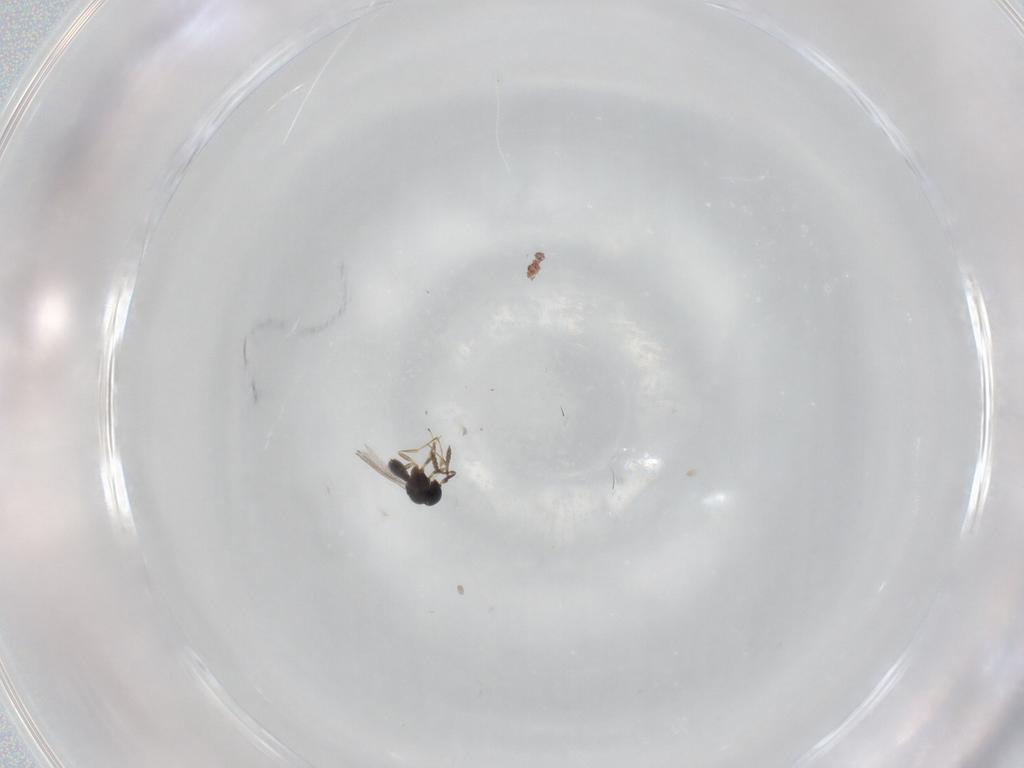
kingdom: Animalia
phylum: Arthropoda
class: Insecta
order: Hymenoptera
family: Scelionidae
